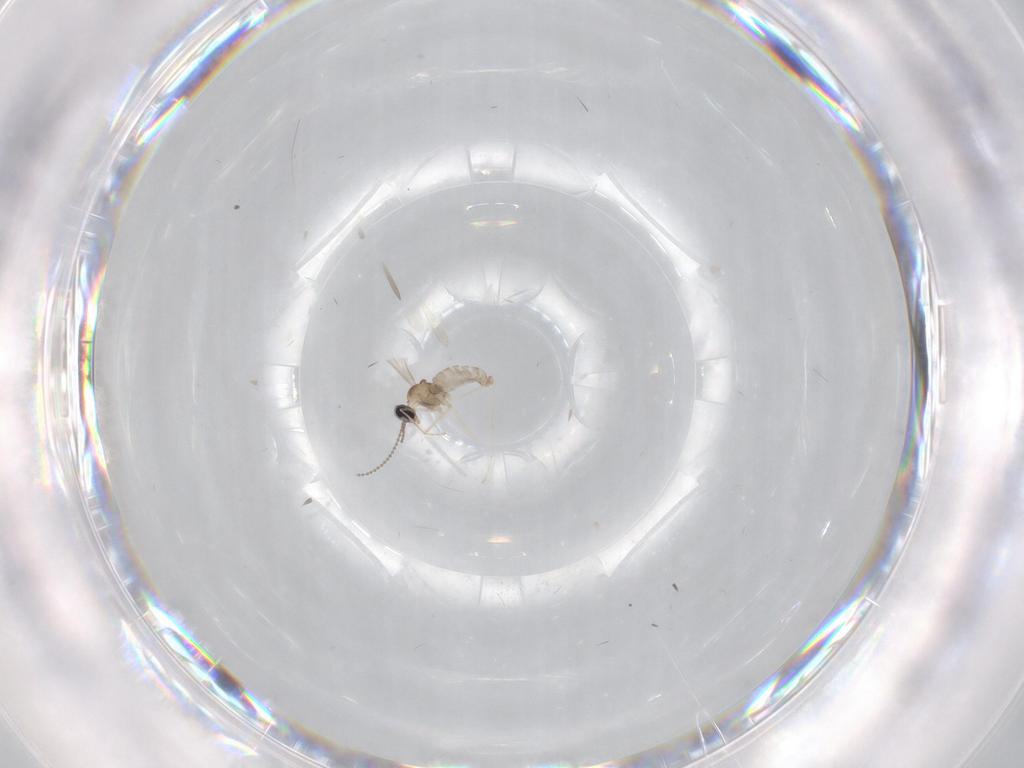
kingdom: Animalia
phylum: Arthropoda
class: Insecta
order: Diptera
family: Cecidomyiidae
